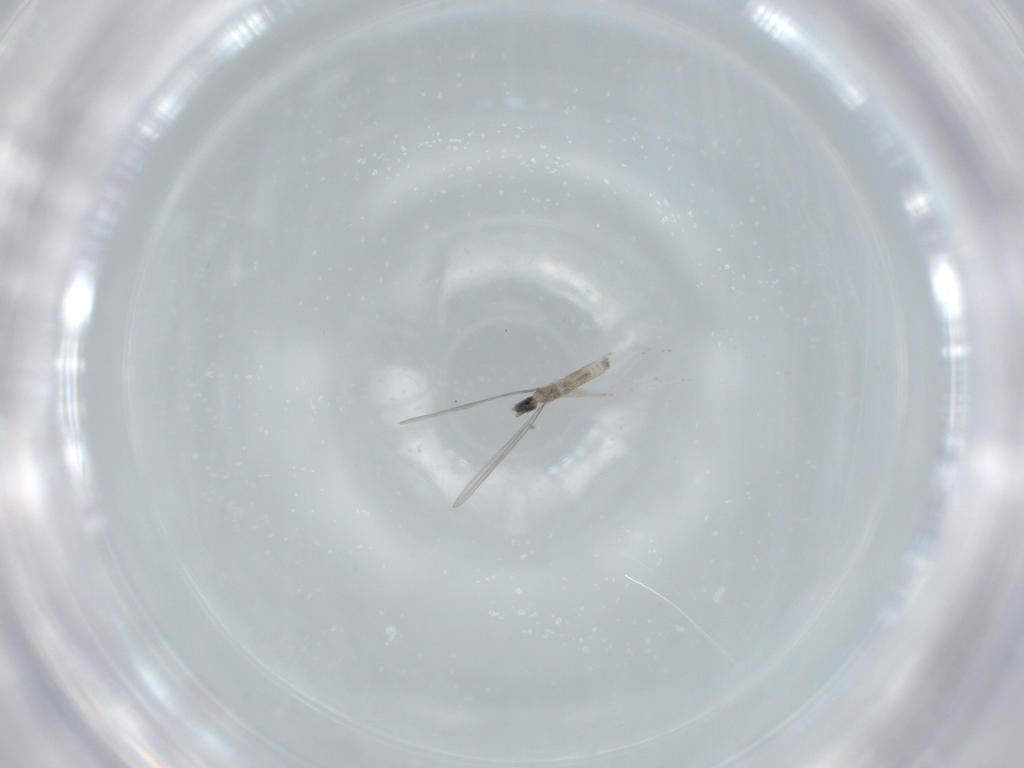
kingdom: Animalia
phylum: Arthropoda
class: Insecta
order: Diptera
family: Cecidomyiidae
